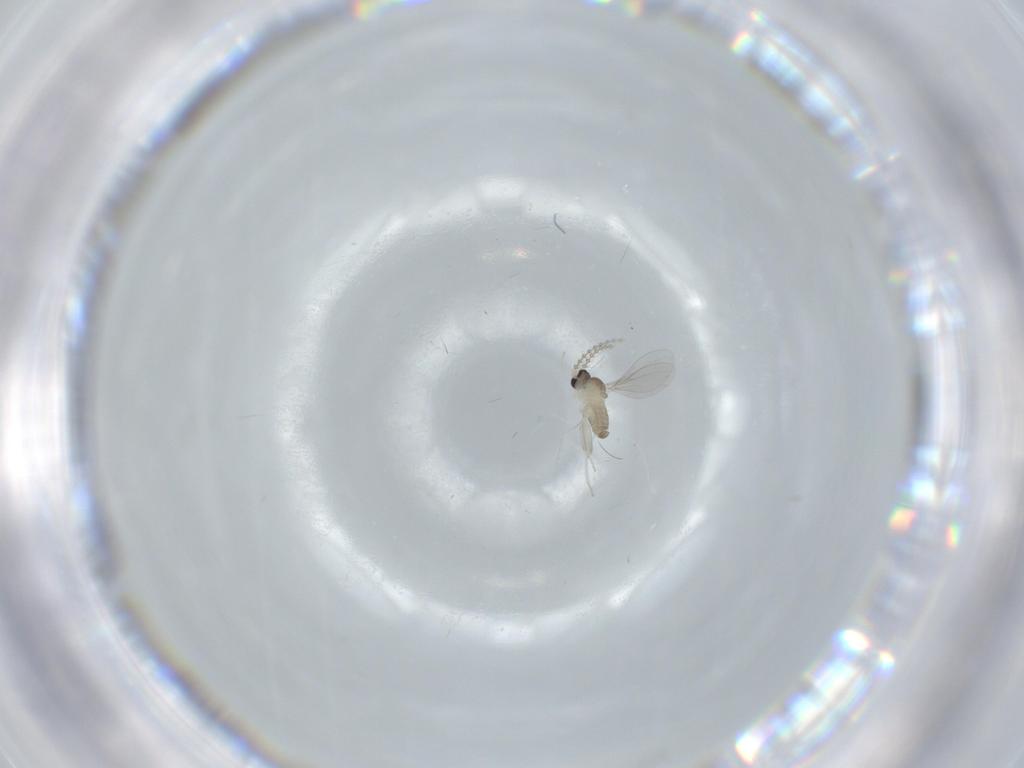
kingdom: Animalia
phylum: Arthropoda
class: Insecta
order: Diptera
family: Cecidomyiidae
